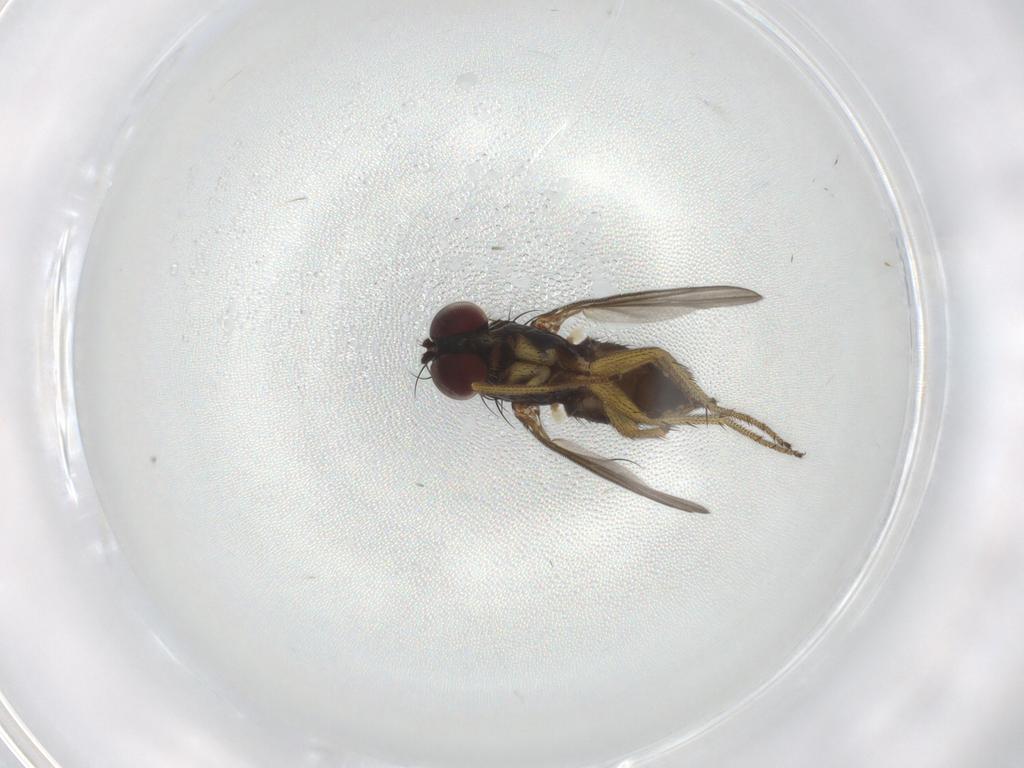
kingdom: Animalia
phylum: Arthropoda
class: Insecta
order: Diptera
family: Dolichopodidae
